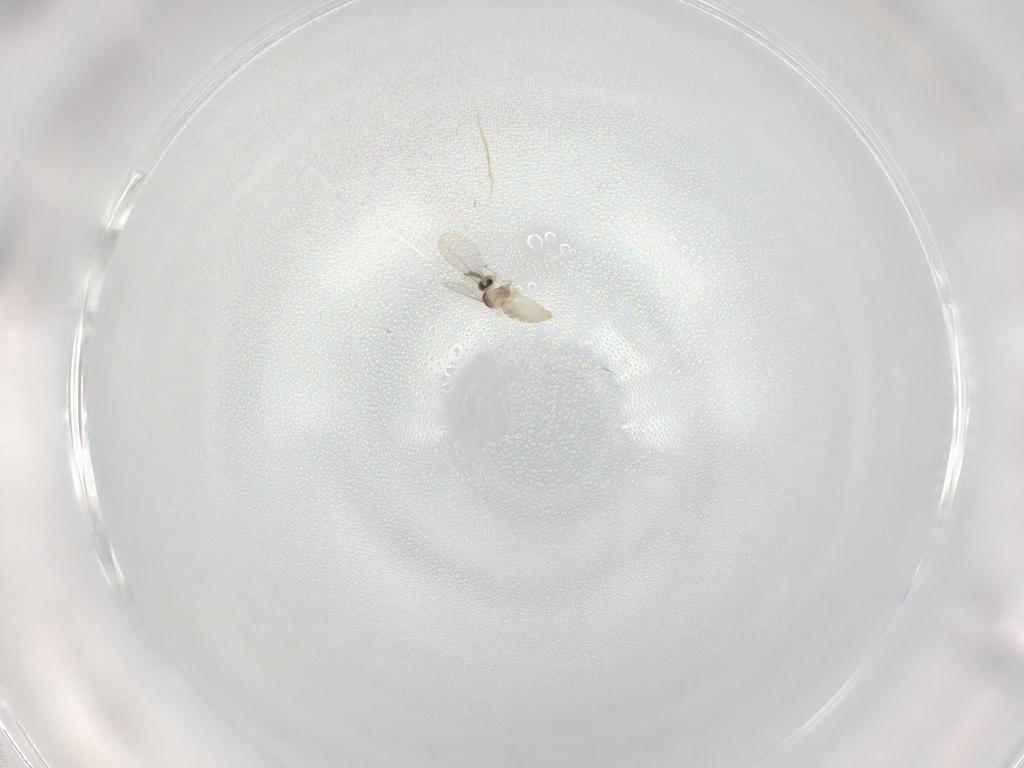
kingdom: Animalia
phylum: Arthropoda
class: Insecta
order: Diptera
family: Cecidomyiidae
